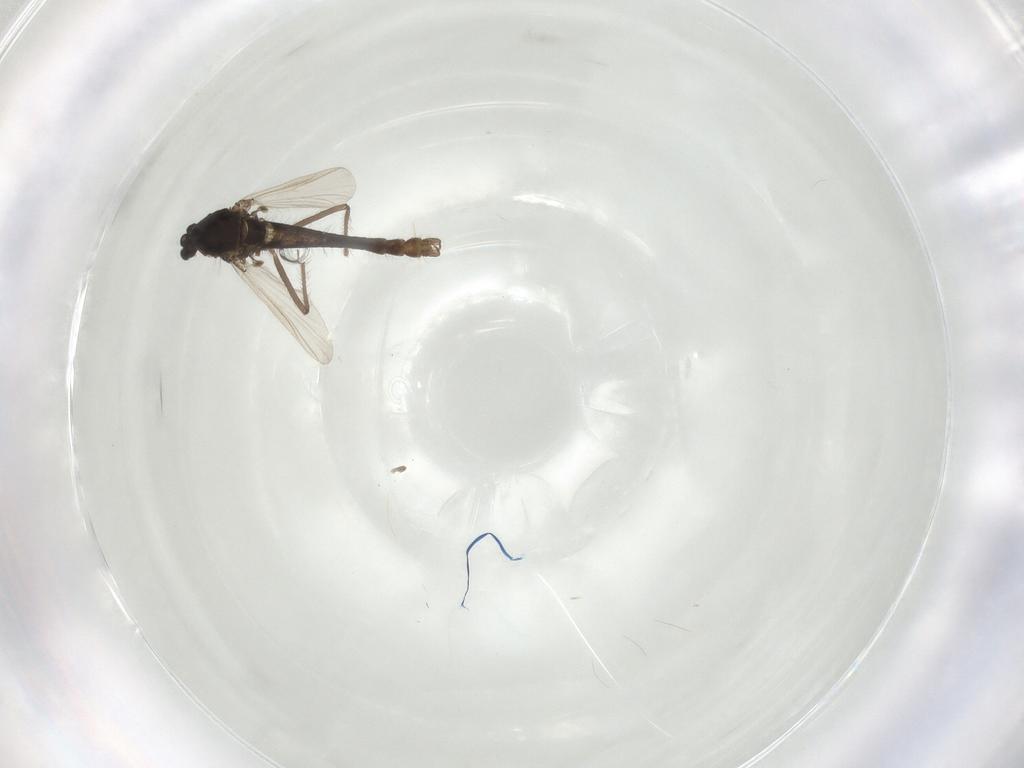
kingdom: Animalia
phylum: Arthropoda
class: Insecta
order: Diptera
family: Chironomidae
